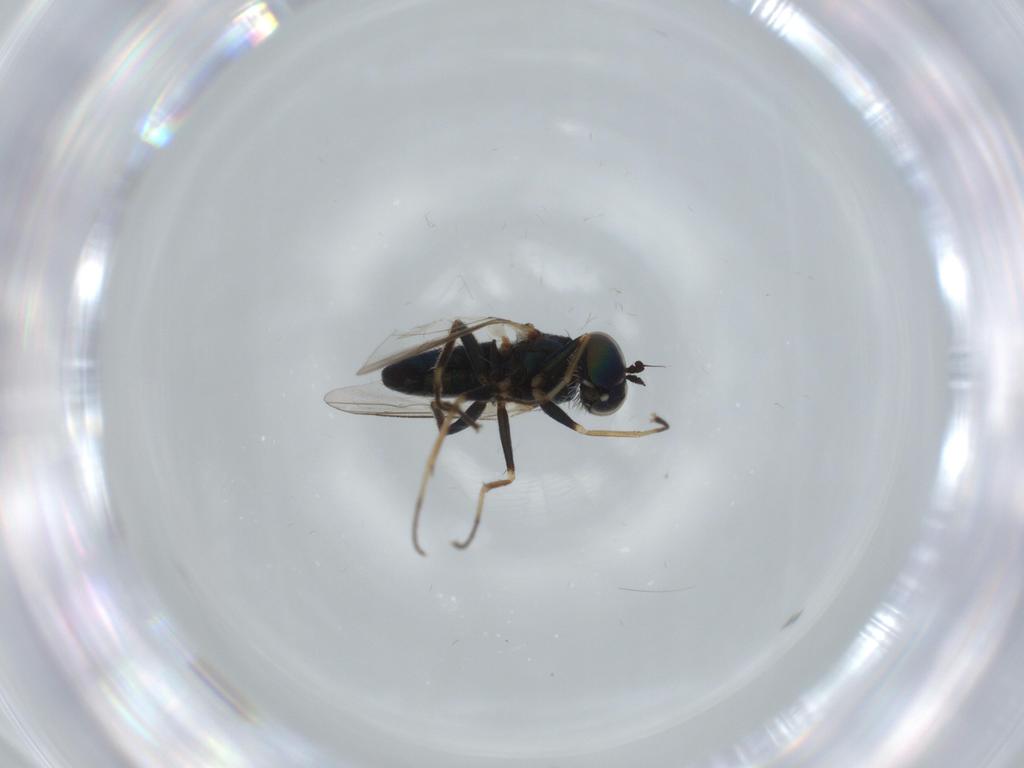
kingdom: Animalia
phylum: Arthropoda
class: Insecta
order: Diptera
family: Dolichopodidae
